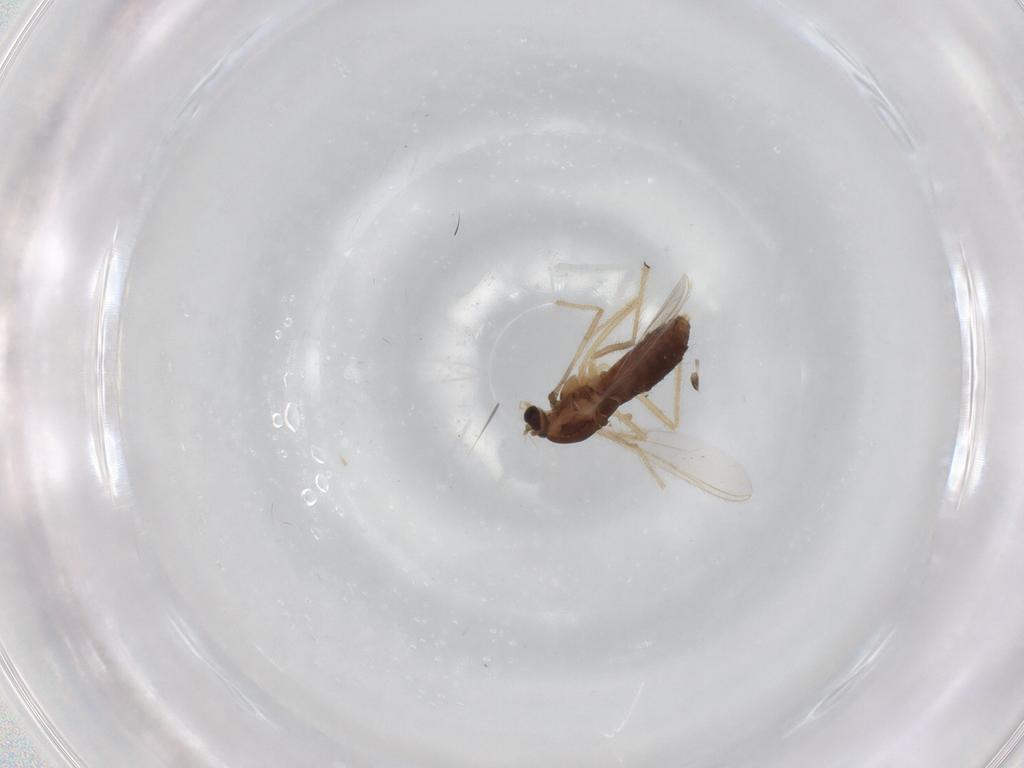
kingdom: Animalia
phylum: Arthropoda
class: Insecta
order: Diptera
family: Chironomidae
